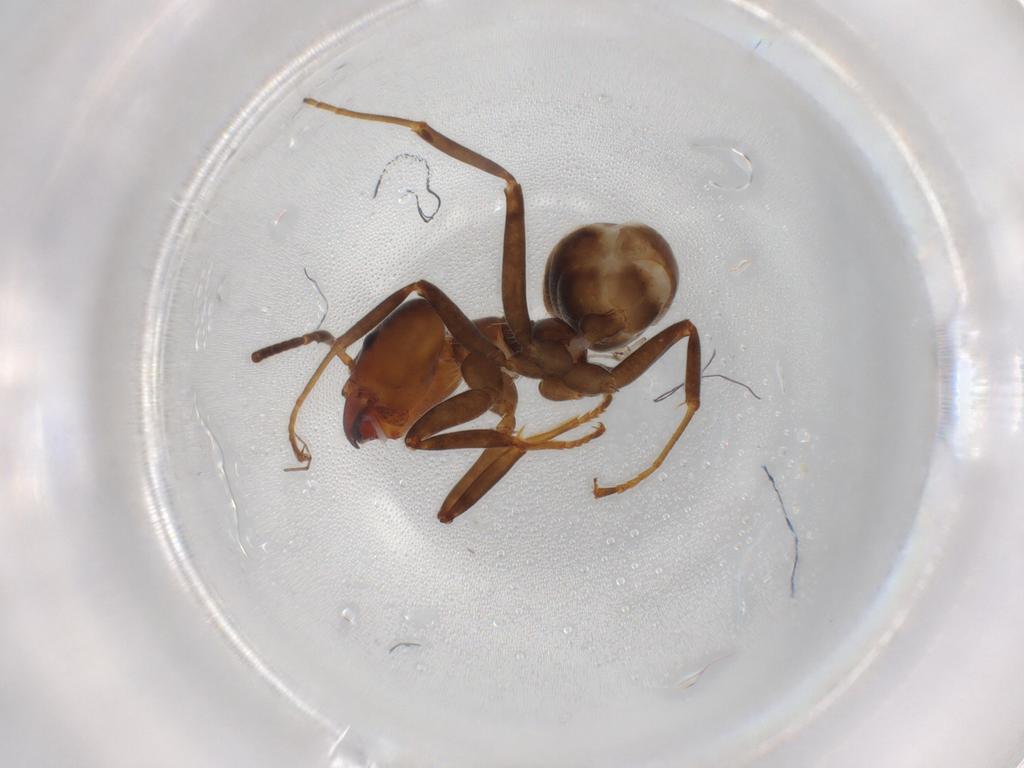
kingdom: Animalia
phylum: Arthropoda
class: Insecta
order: Hymenoptera
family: Formicidae
